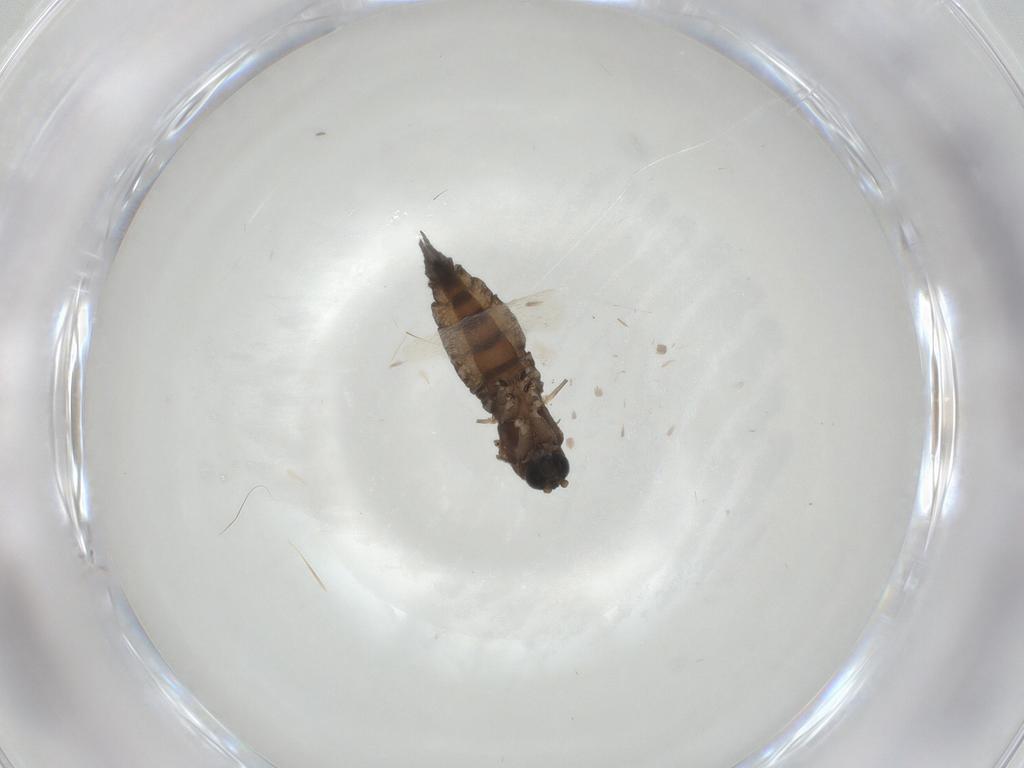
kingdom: Animalia
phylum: Arthropoda
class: Insecta
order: Diptera
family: Sciaridae
